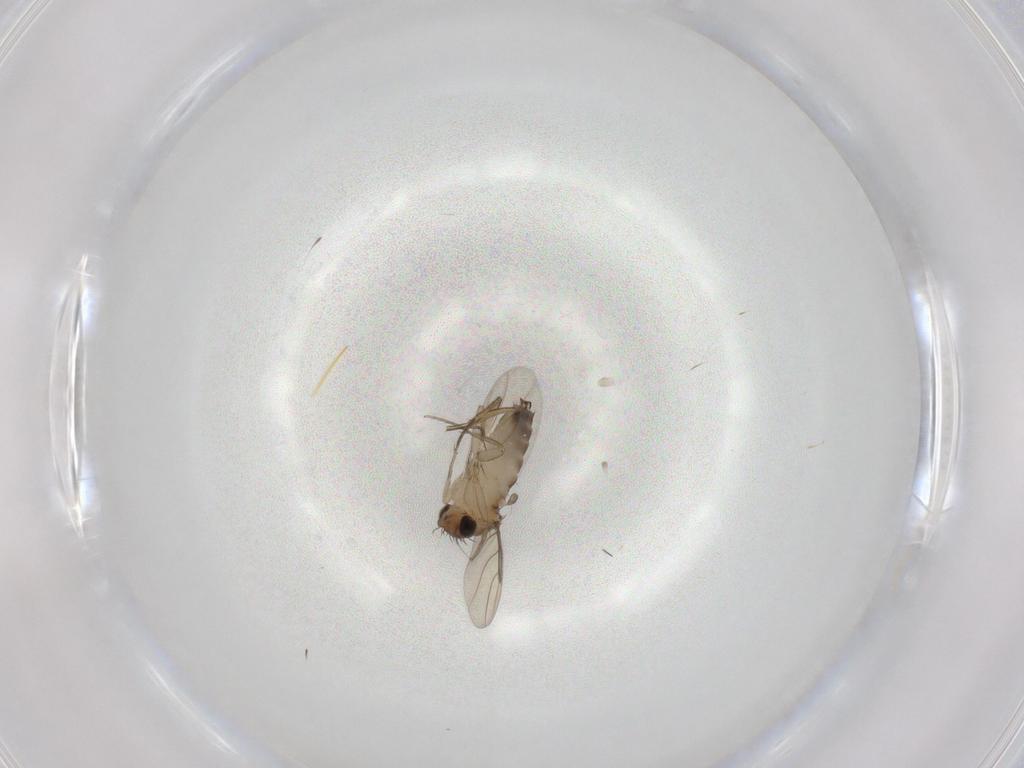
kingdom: Animalia
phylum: Arthropoda
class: Insecta
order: Diptera
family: Phoridae
